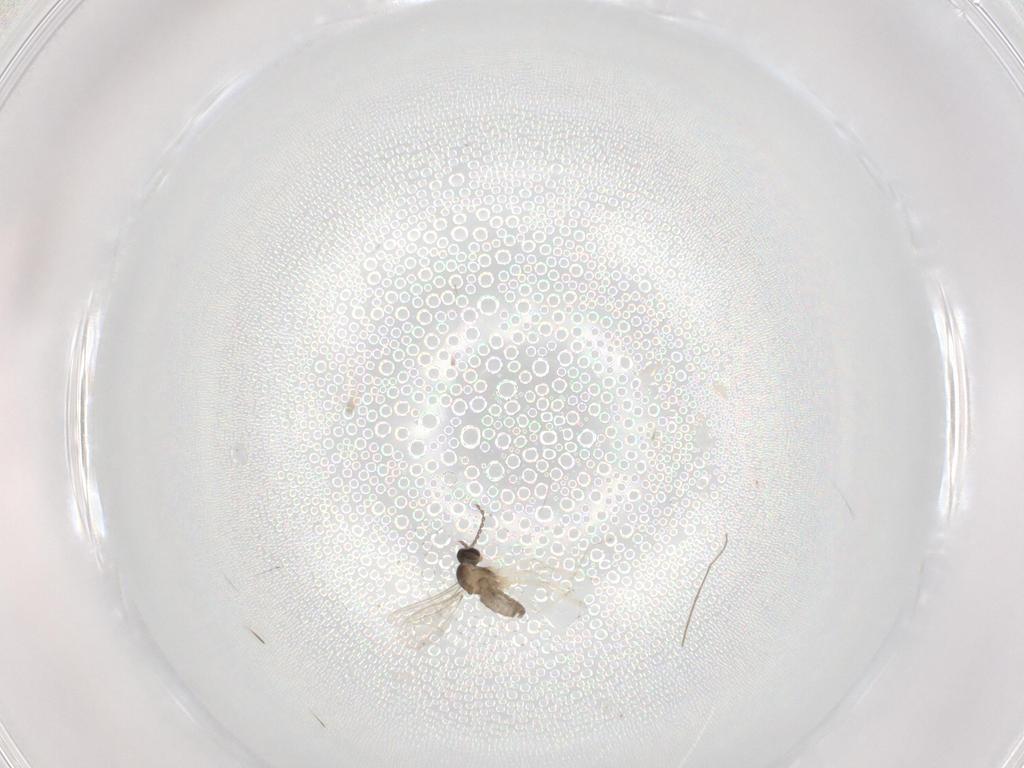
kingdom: Animalia
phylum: Arthropoda
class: Insecta
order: Diptera
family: Cecidomyiidae
